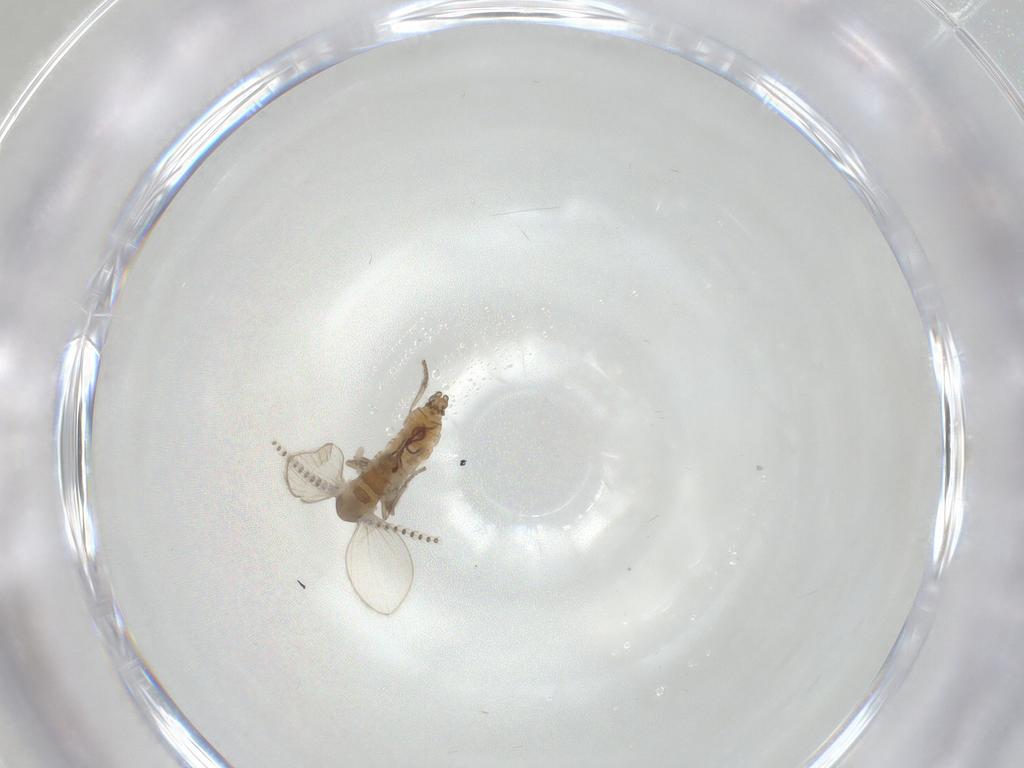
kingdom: Animalia
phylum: Arthropoda
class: Insecta
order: Diptera
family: Psychodidae
